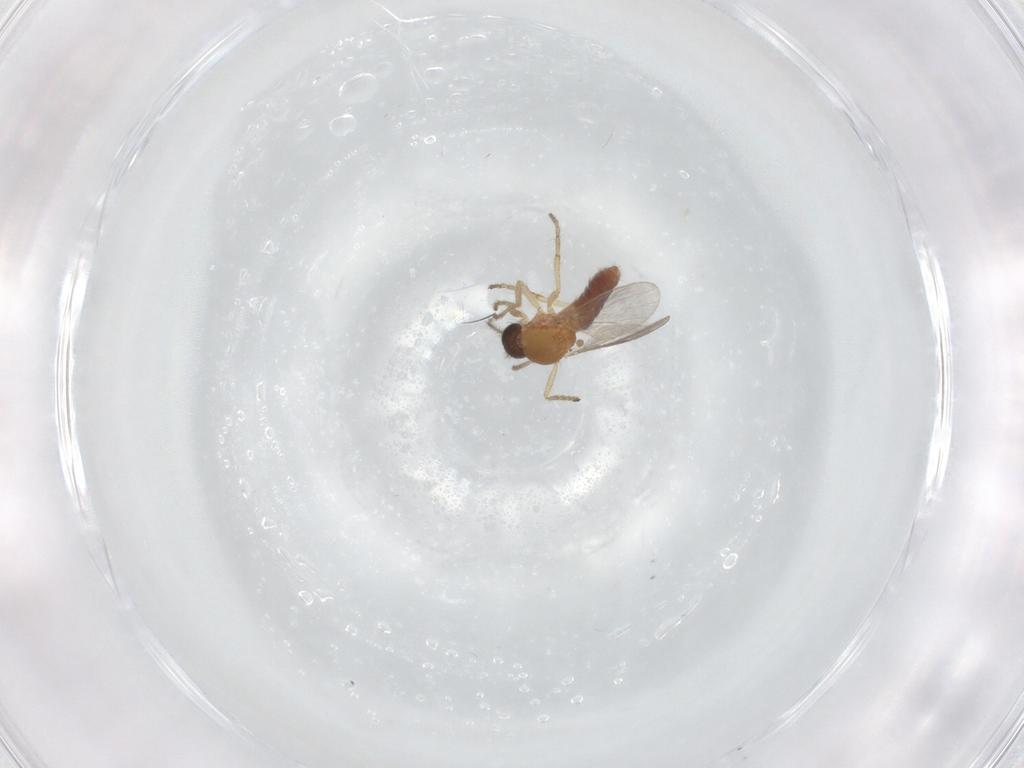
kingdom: Animalia
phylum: Arthropoda
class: Insecta
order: Diptera
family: Ceratopogonidae
